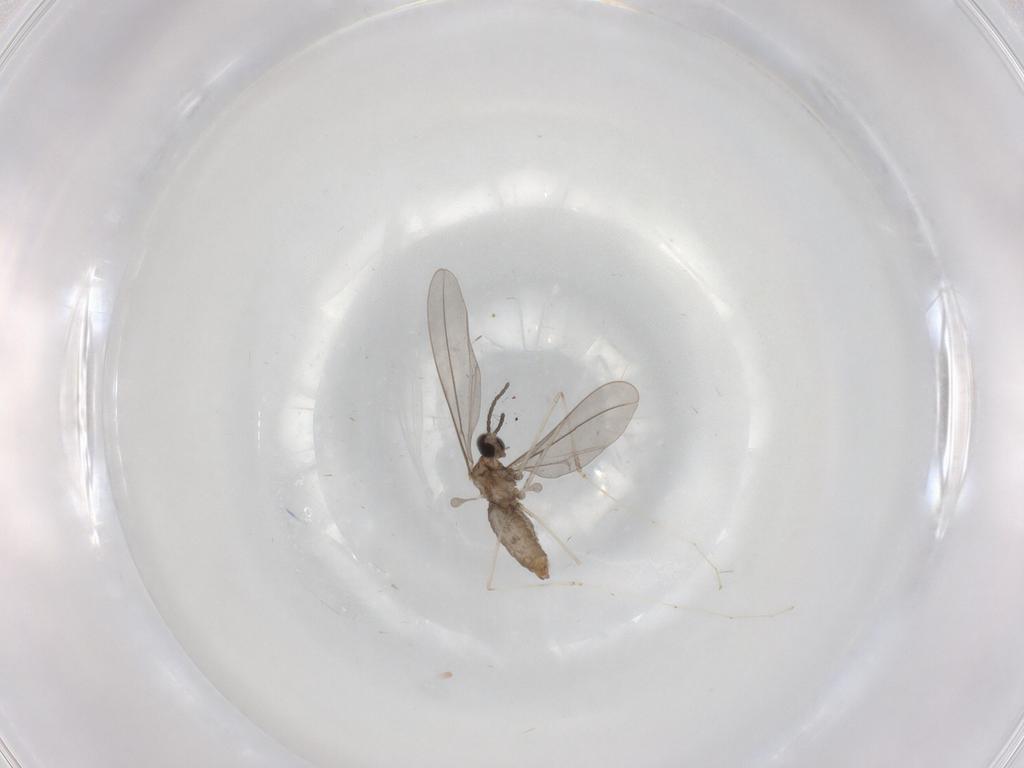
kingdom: Animalia
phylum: Arthropoda
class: Insecta
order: Diptera
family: Cecidomyiidae
